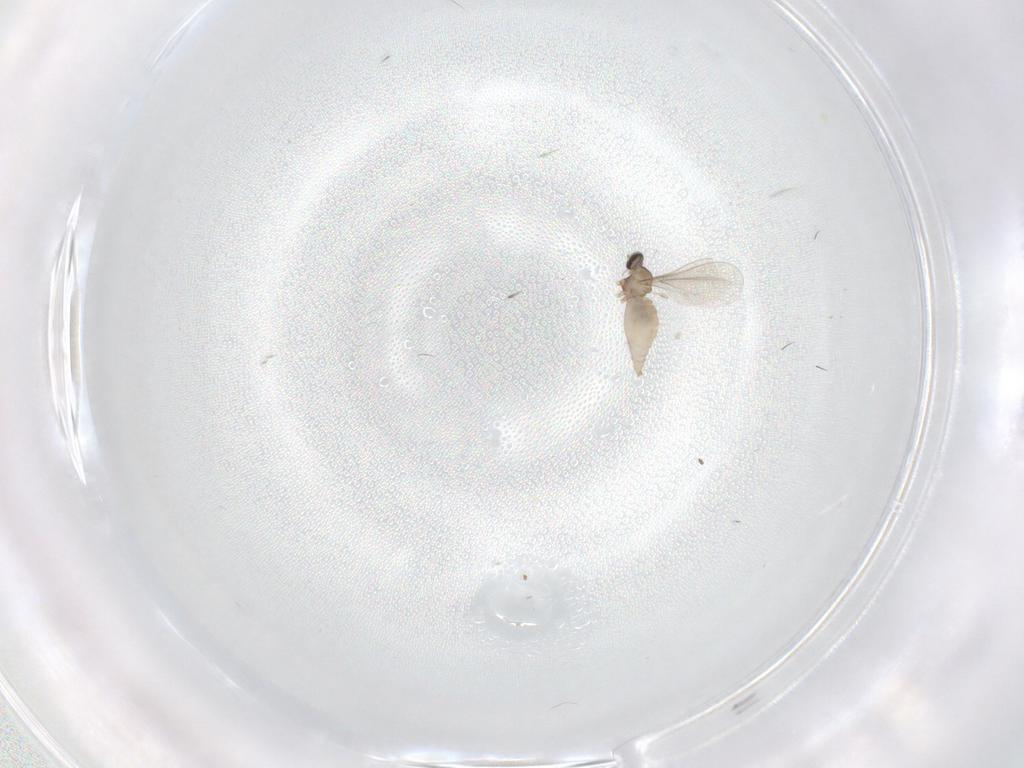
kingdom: Animalia
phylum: Arthropoda
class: Insecta
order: Diptera
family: Cecidomyiidae
